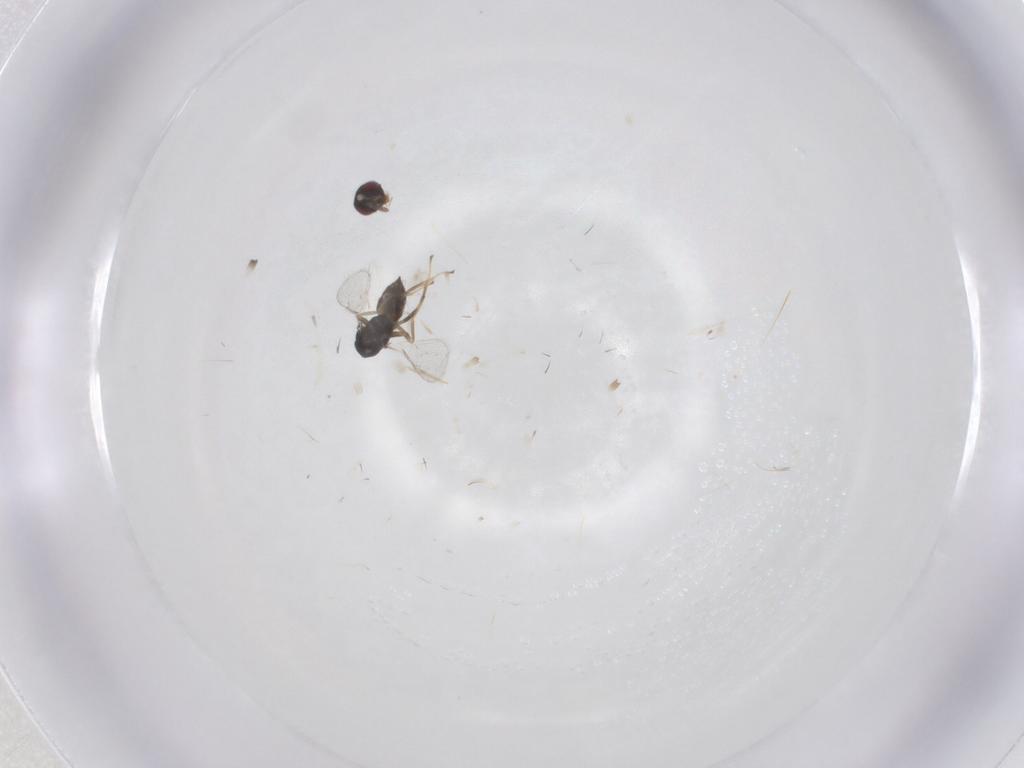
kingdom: Animalia
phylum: Arthropoda
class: Insecta
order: Hymenoptera
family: Eulophidae
